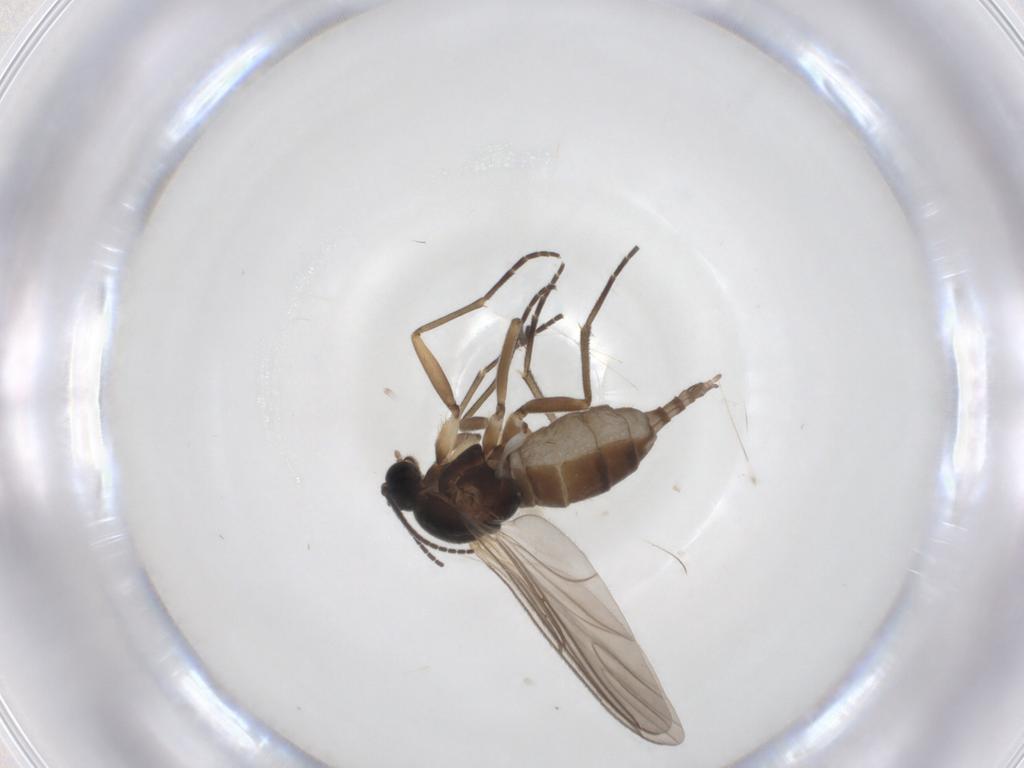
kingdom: Animalia
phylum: Arthropoda
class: Insecta
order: Diptera
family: Sciaridae
